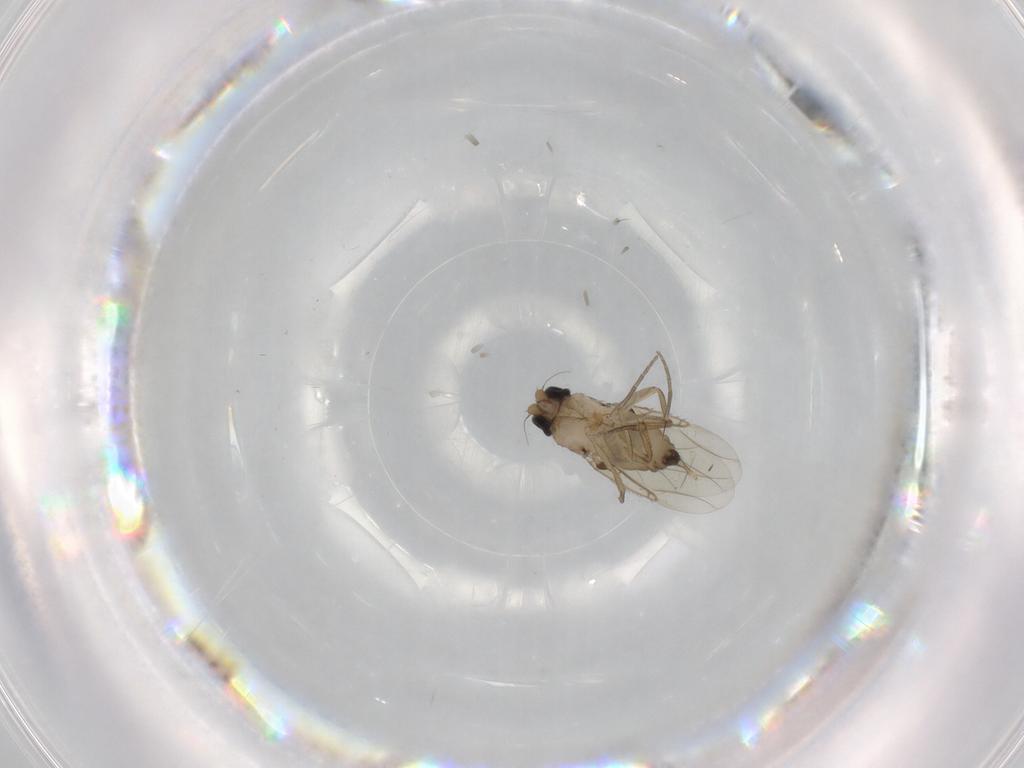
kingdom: Animalia
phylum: Arthropoda
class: Insecta
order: Diptera
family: Phoridae
